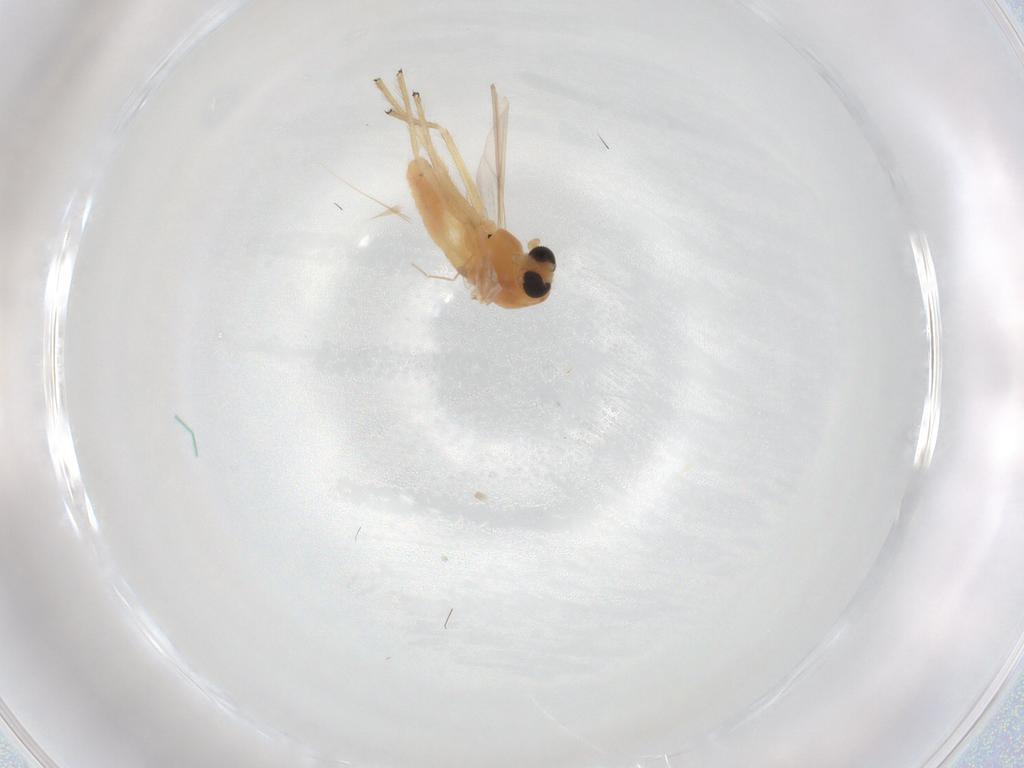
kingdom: Animalia
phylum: Arthropoda
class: Insecta
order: Diptera
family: Chironomidae
